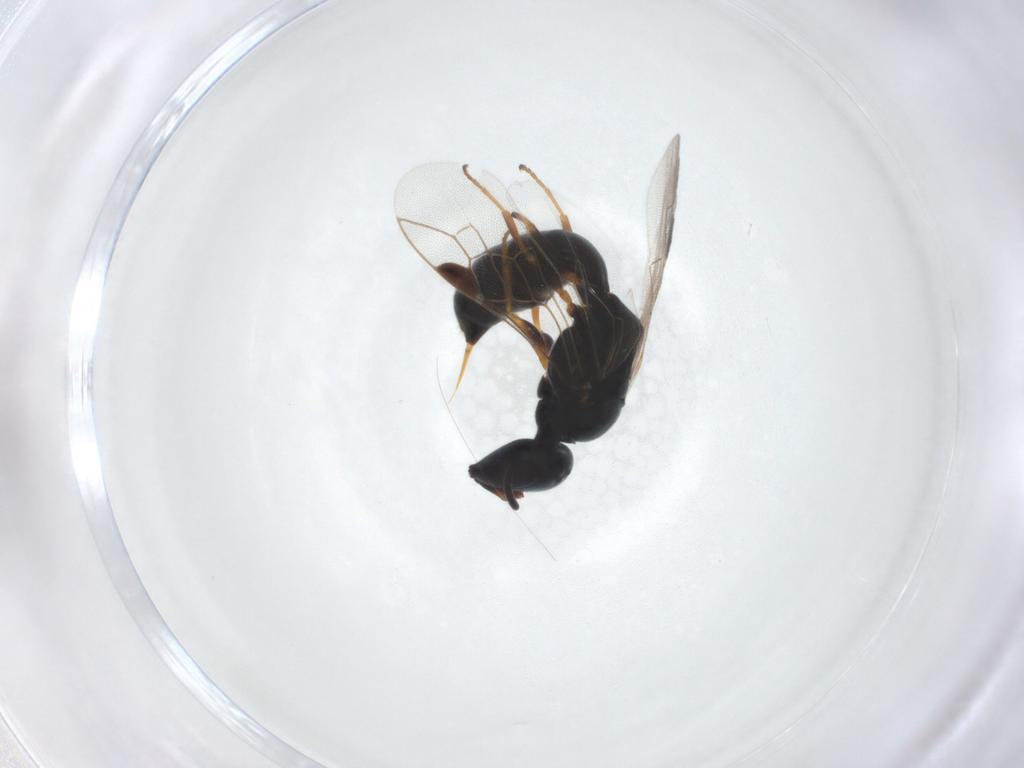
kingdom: Animalia
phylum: Arthropoda
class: Insecta
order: Hymenoptera
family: Crabronidae
